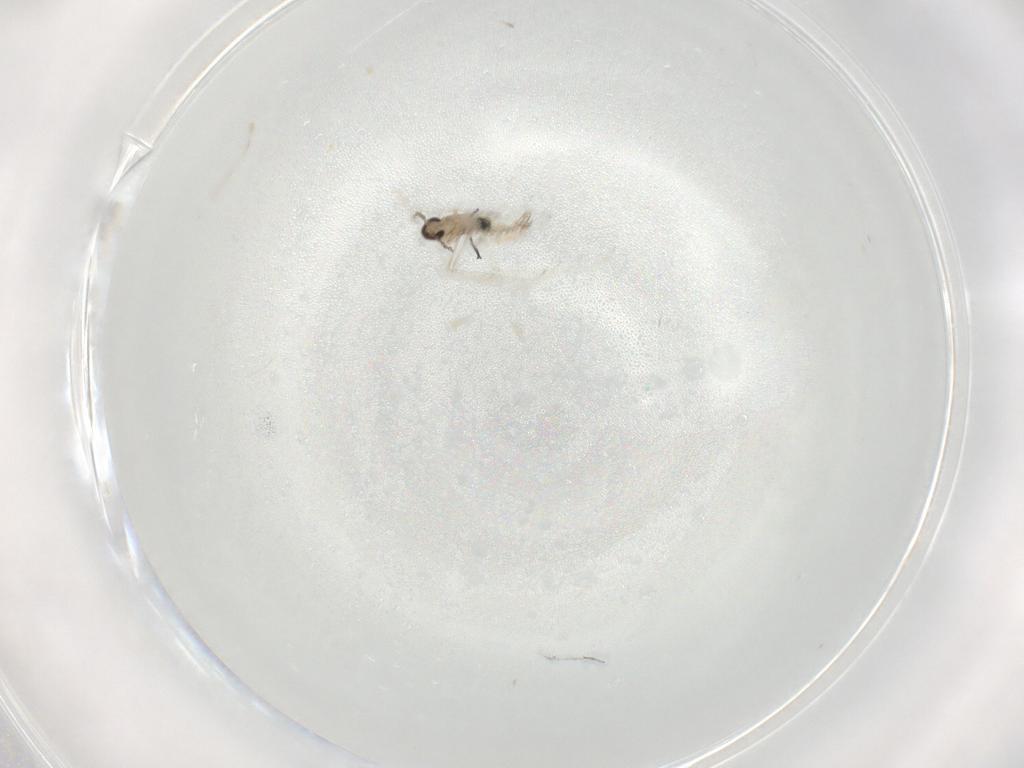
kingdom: Animalia
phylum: Arthropoda
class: Insecta
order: Diptera
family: Cecidomyiidae
